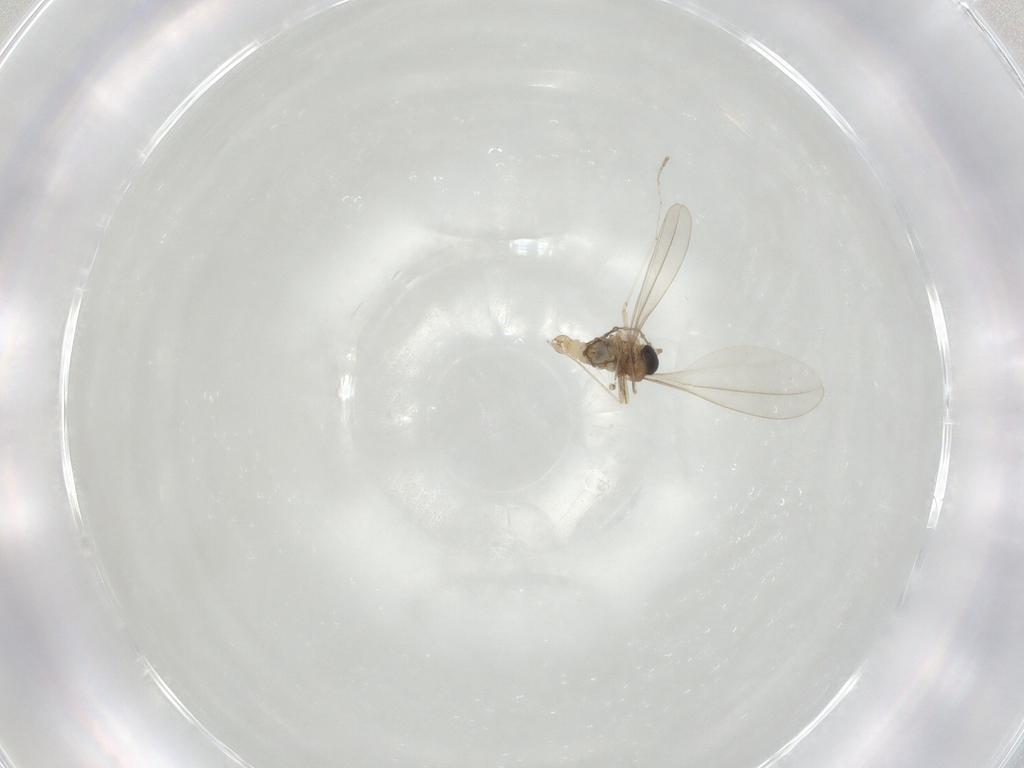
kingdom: Animalia
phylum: Arthropoda
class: Insecta
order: Diptera
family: Cecidomyiidae
